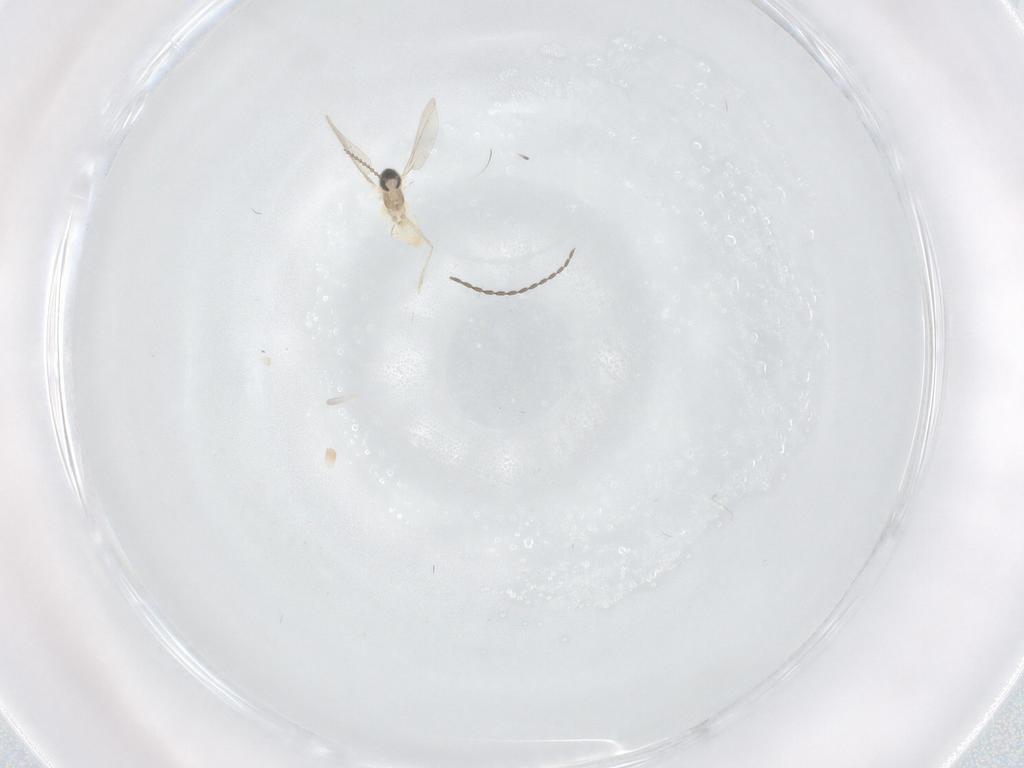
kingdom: Animalia
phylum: Arthropoda
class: Insecta
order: Diptera
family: Cecidomyiidae
